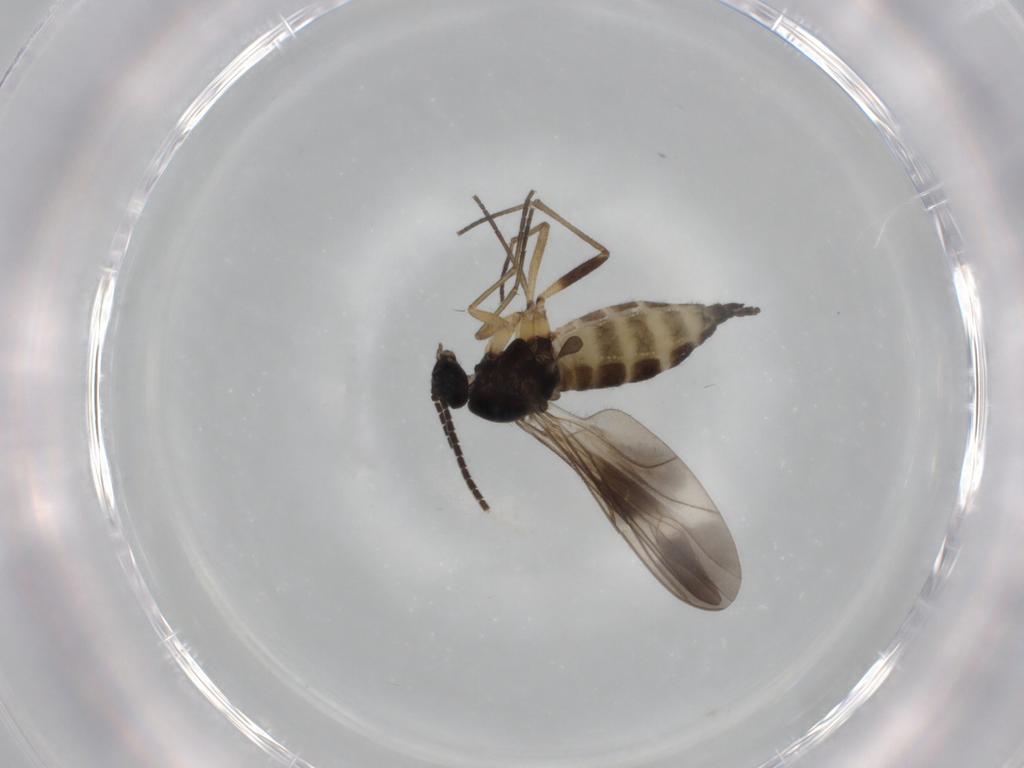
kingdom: Animalia
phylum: Arthropoda
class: Insecta
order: Diptera
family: Sciaridae
